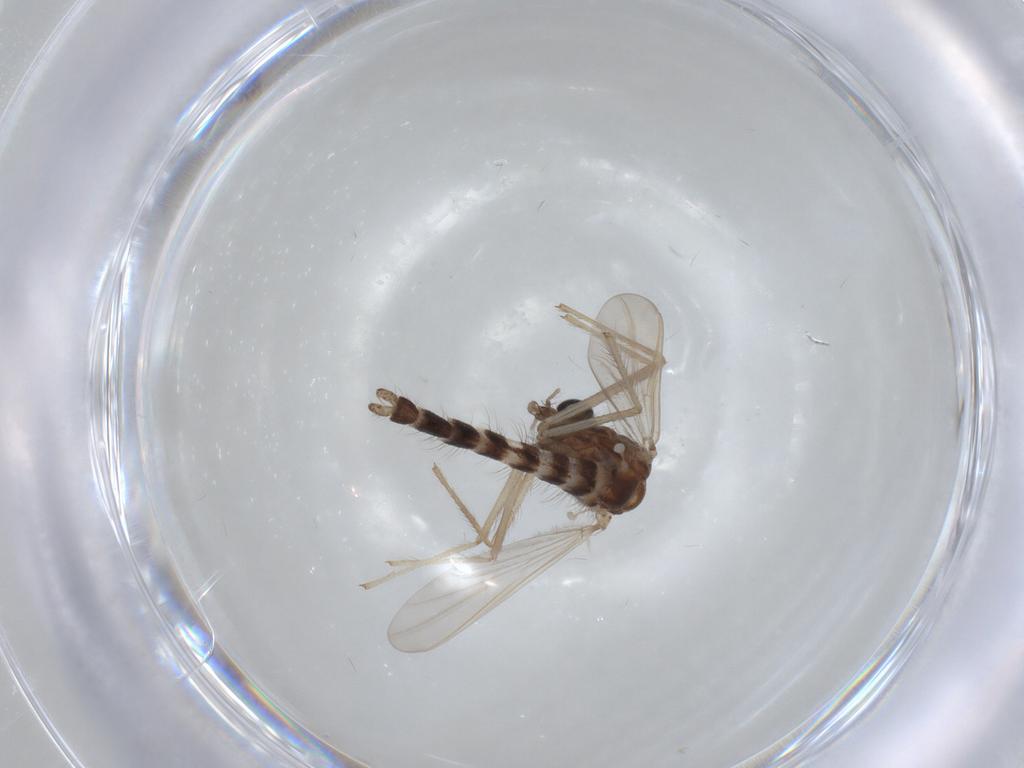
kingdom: Animalia
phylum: Arthropoda
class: Insecta
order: Diptera
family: Chironomidae
